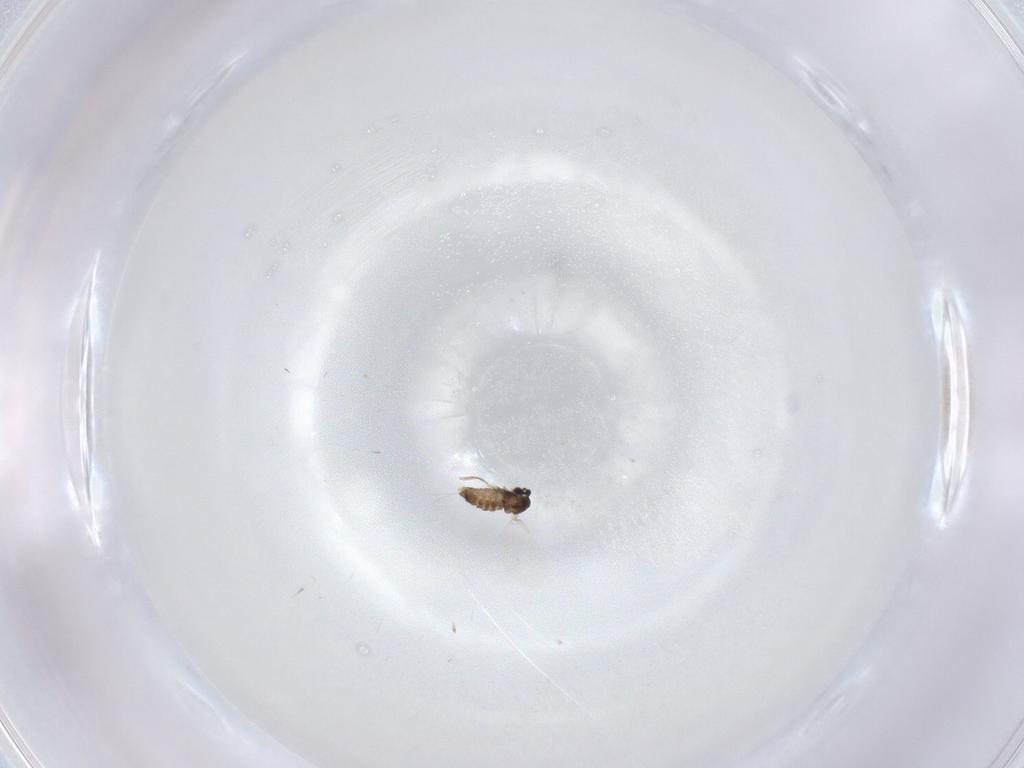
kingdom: Animalia
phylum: Arthropoda
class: Insecta
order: Diptera
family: Cecidomyiidae
